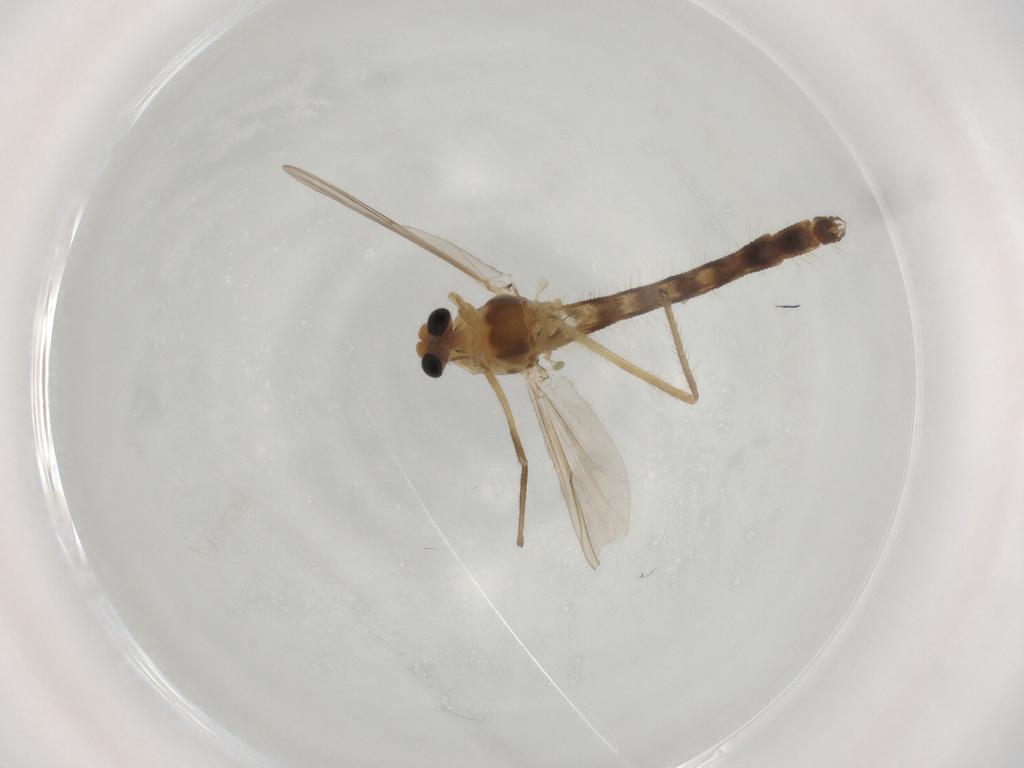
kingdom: Animalia
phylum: Arthropoda
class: Insecta
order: Diptera
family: Chironomidae
